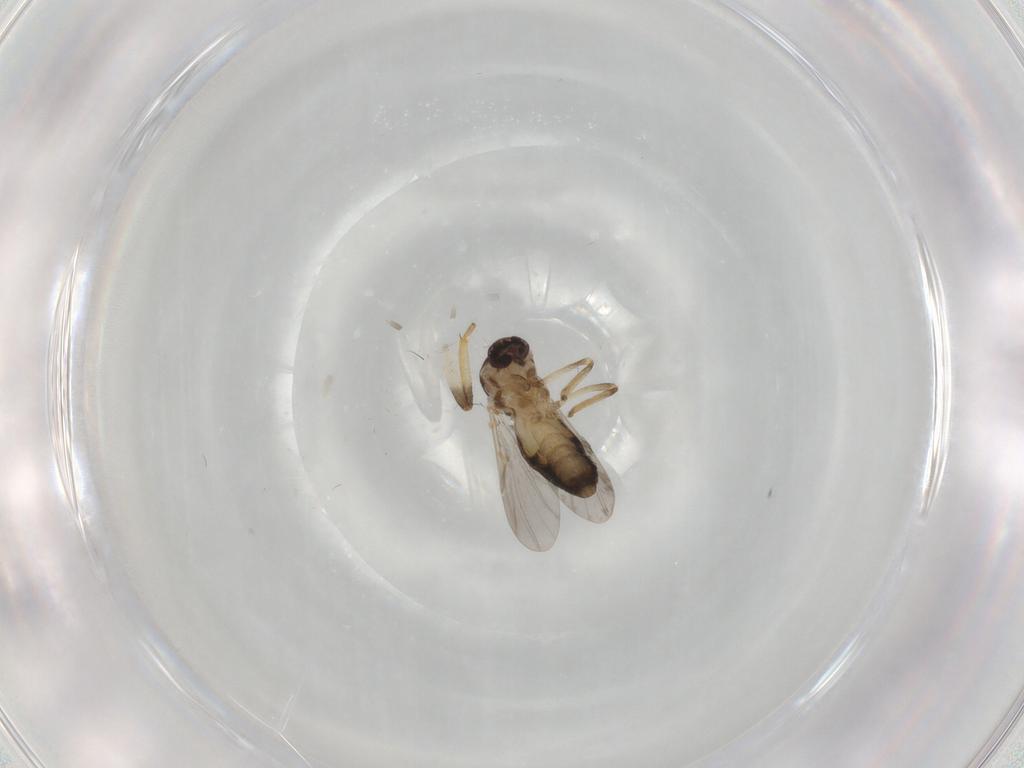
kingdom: Animalia
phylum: Arthropoda
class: Insecta
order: Diptera
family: Ceratopogonidae
